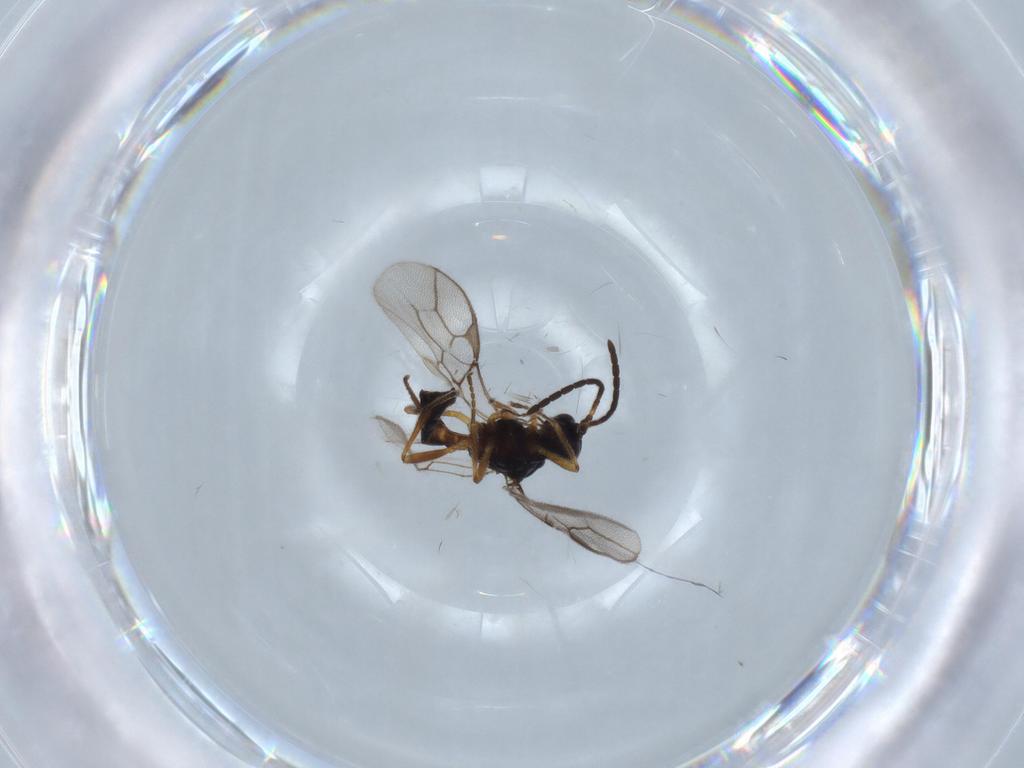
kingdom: Animalia
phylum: Arthropoda
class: Insecta
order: Hymenoptera
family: Braconidae
